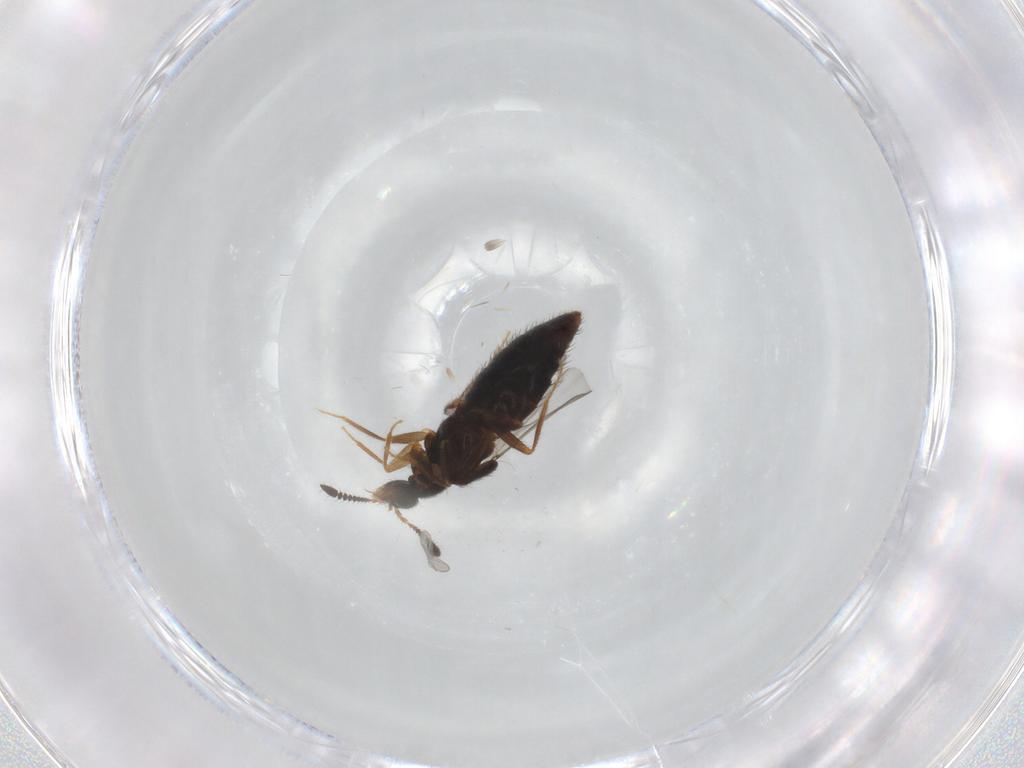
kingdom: Animalia
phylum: Arthropoda
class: Insecta
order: Coleoptera
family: Staphylinidae
